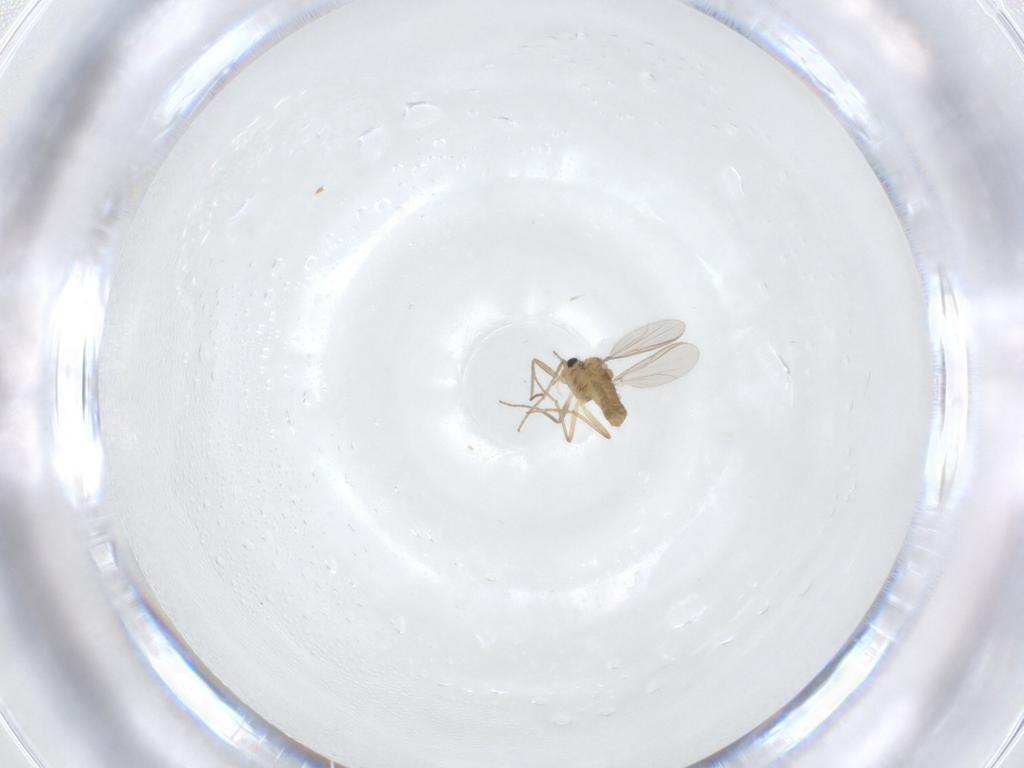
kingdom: Animalia
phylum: Arthropoda
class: Insecta
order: Diptera
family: Chironomidae
